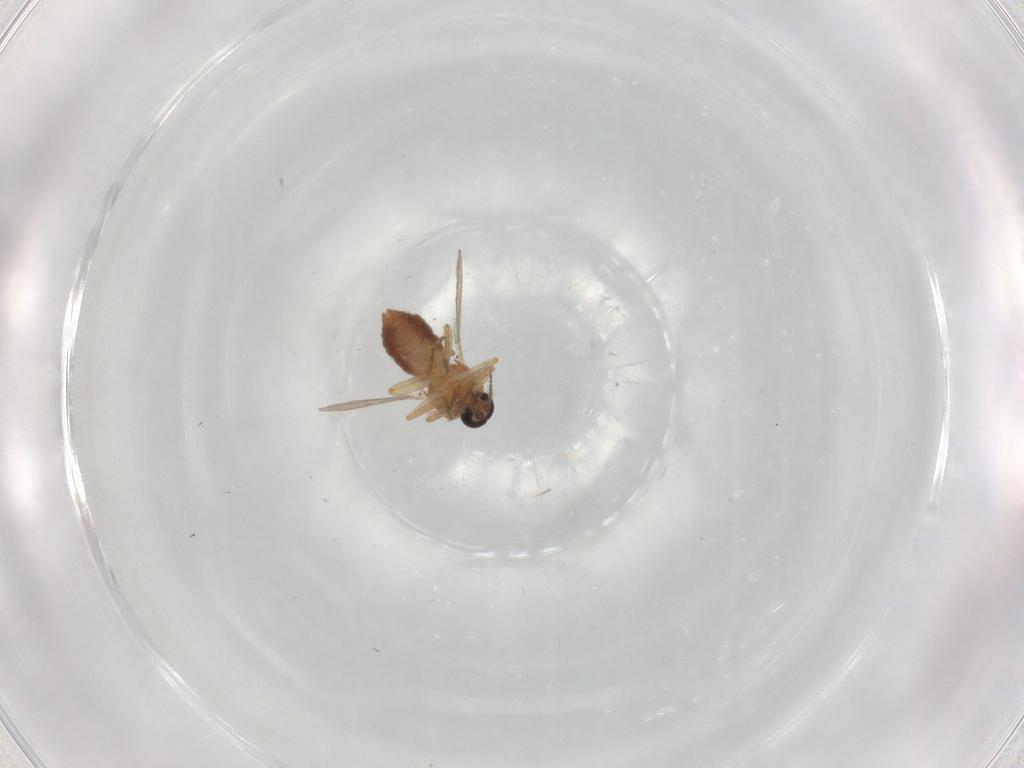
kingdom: Animalia
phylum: Arthropoda
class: Insecta
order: Diptera
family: Ceratopogonidae
